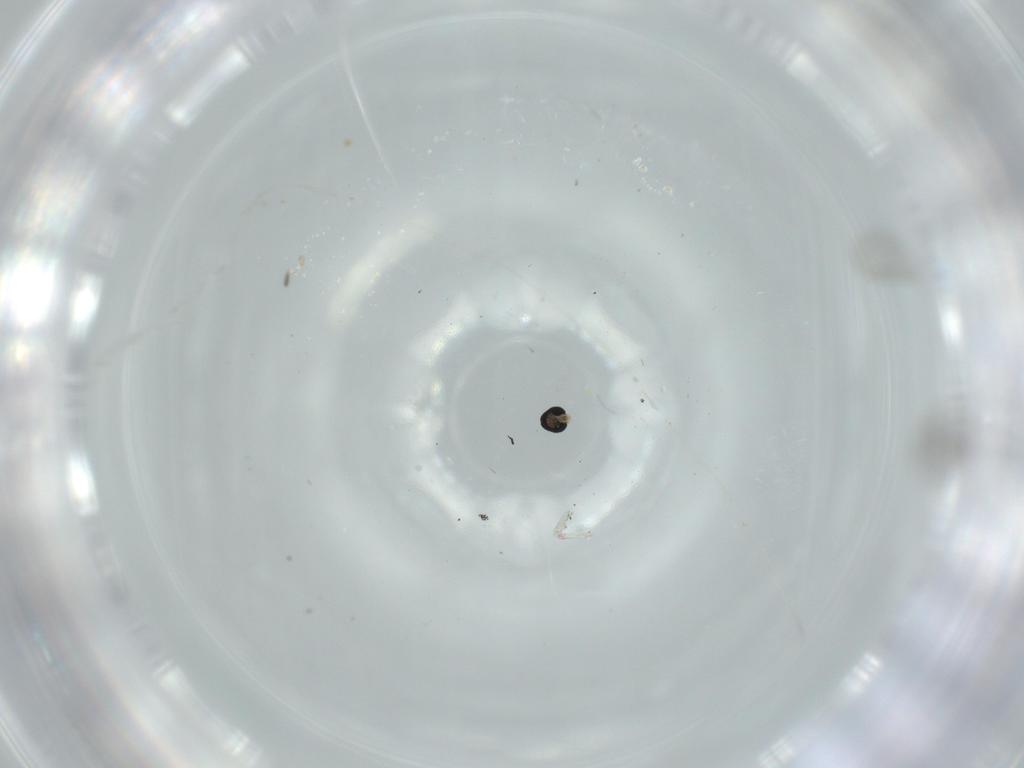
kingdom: Animalia
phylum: Arthropoda
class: Insecta
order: Diptera
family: Cecidomyiidae
